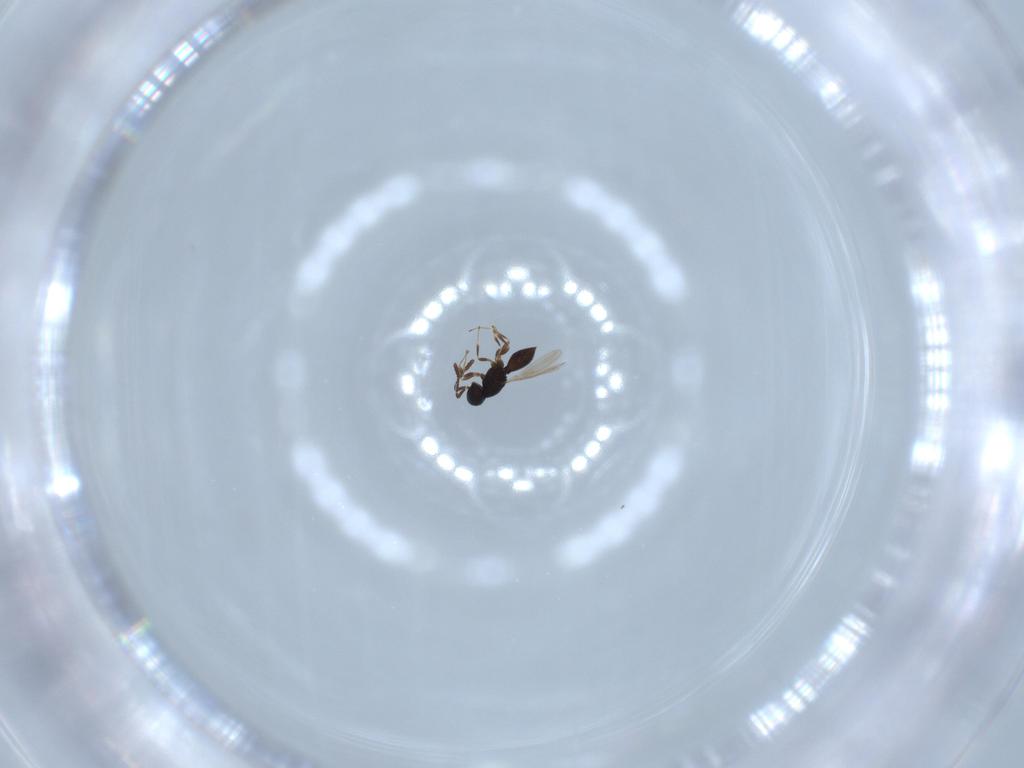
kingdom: Animalia
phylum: Arthropoda
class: Insecta
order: Hymenoptera
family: Scelionidae
